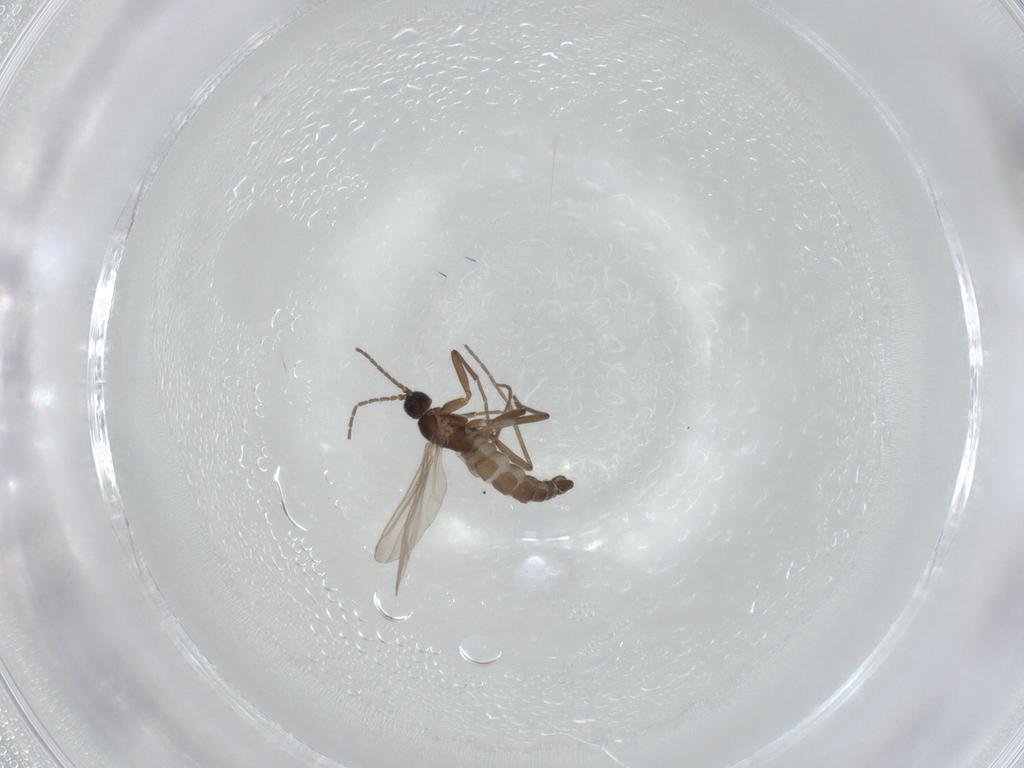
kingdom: Animalia
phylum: Arthropoda
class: Insecta
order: Diptera
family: Sciaridae
